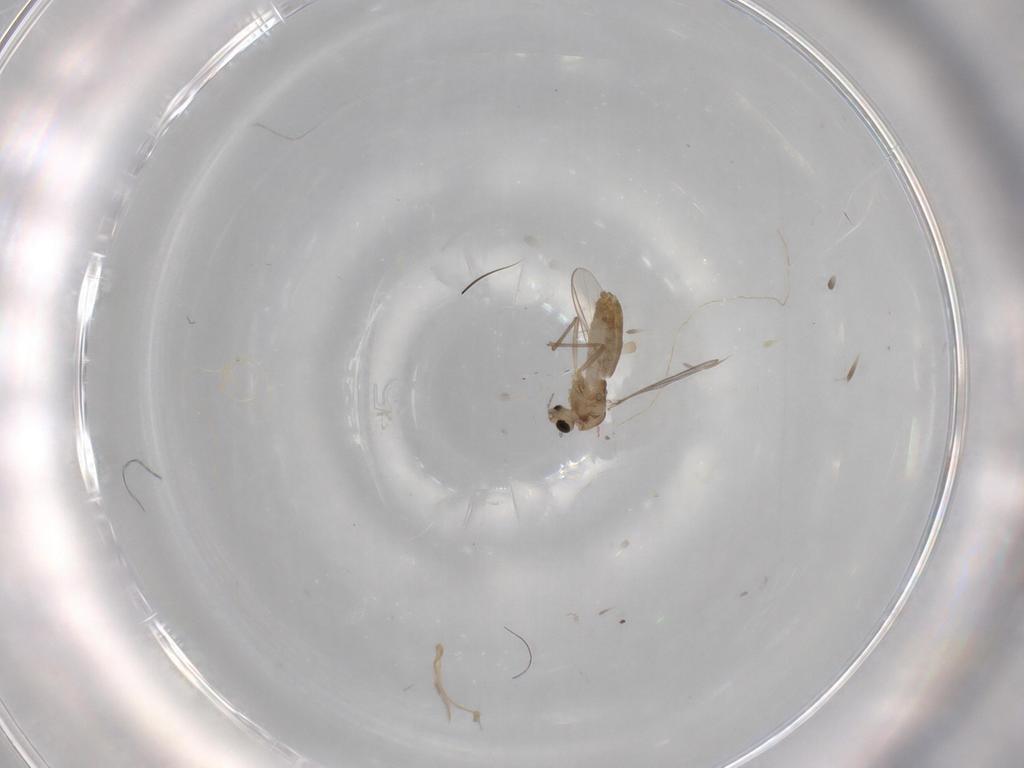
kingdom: Animalia
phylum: Arthropoda
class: Insecta
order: Diptera
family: Chironomidae
